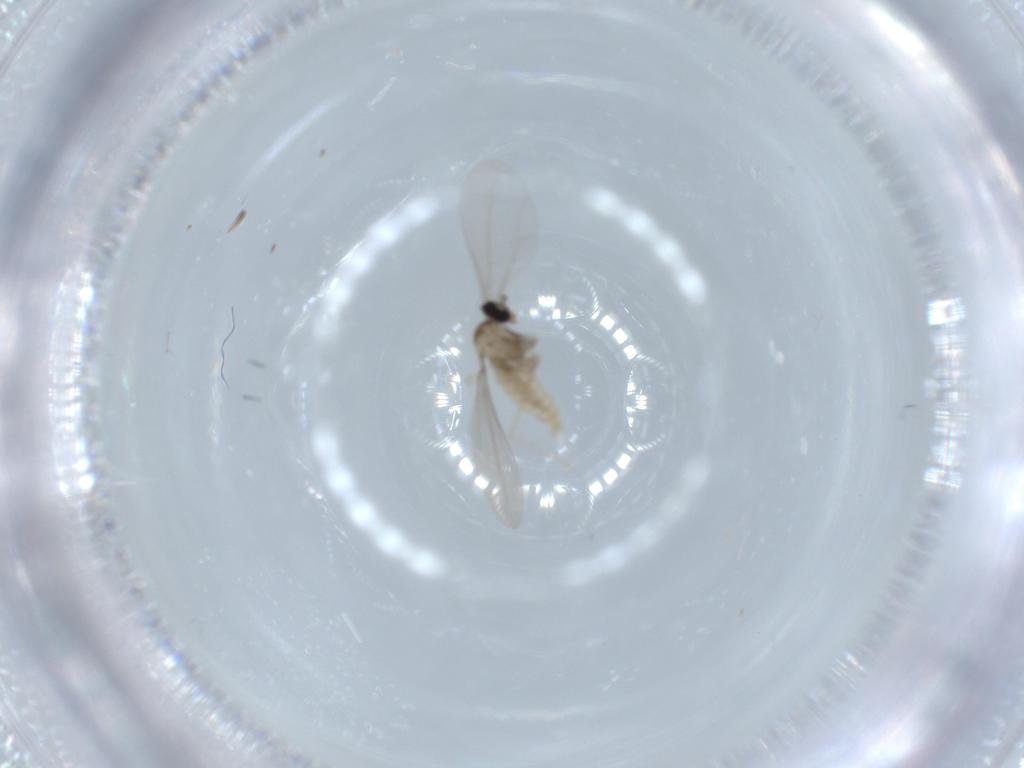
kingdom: Animalia
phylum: Arthropoda
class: Insecta
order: Diptera
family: Cecidomyiidae
